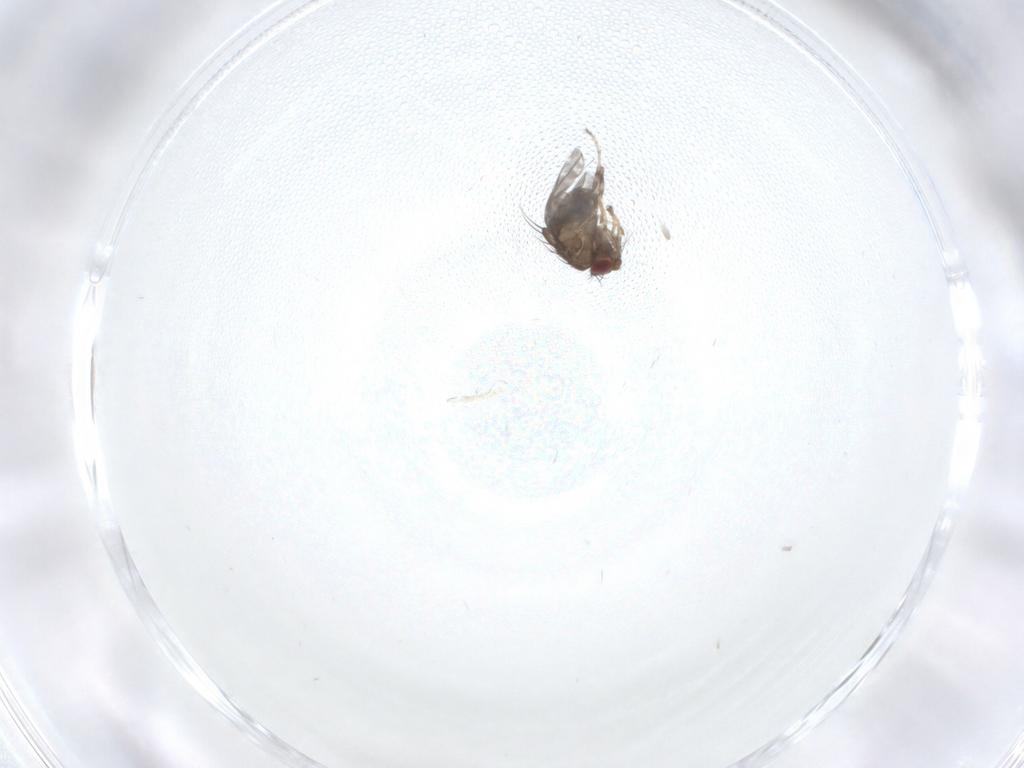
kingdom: Animalia
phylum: Arthropoda
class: Insecta
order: Diptera
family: Sphaeroceridae
